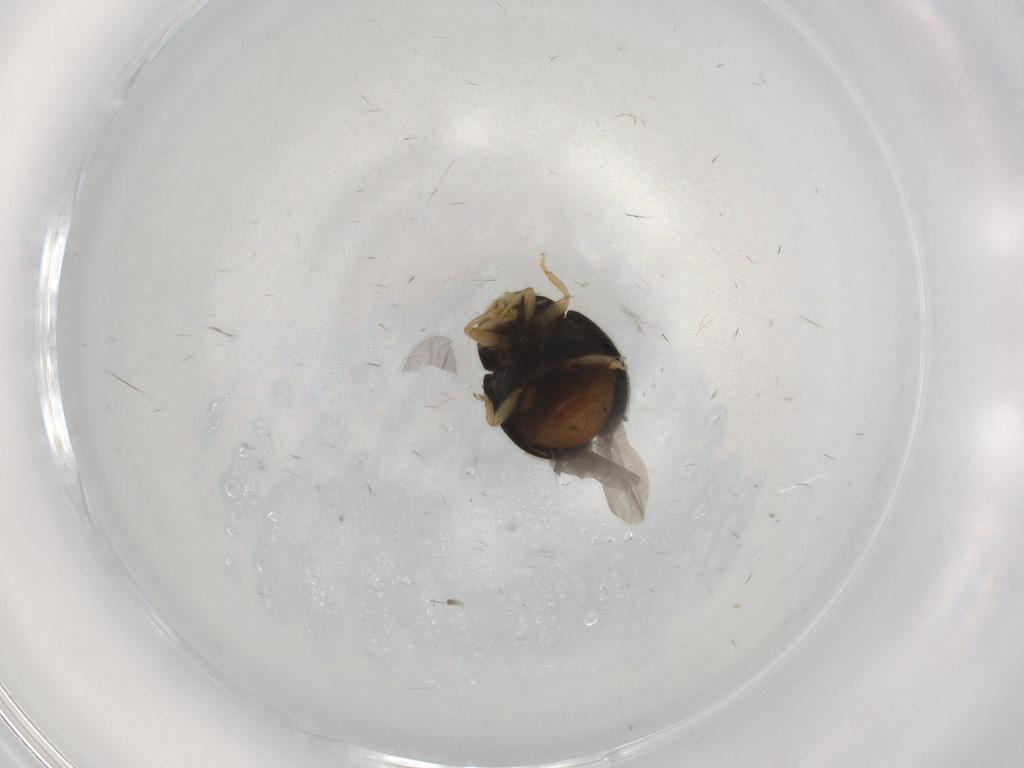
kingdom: Animalia
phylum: Arthropoda
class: Insecta
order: Coleoptera
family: Coccinellidae
